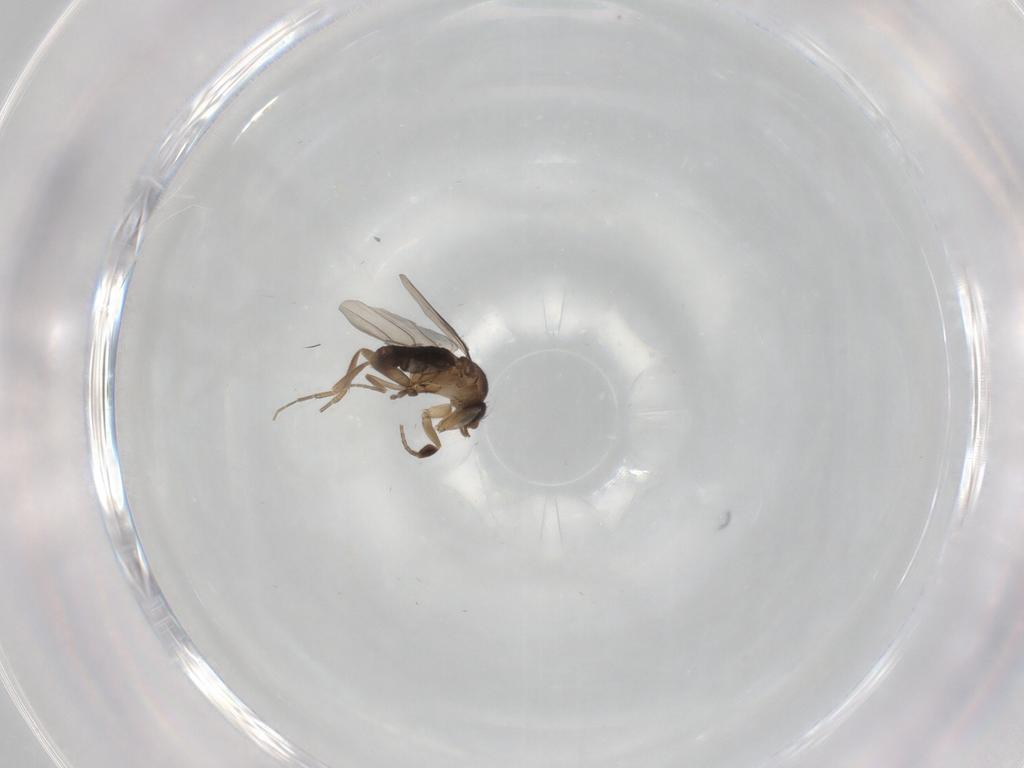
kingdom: Animalia
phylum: Arthropoda
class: Insecta
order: Diptera
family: Phoridae
